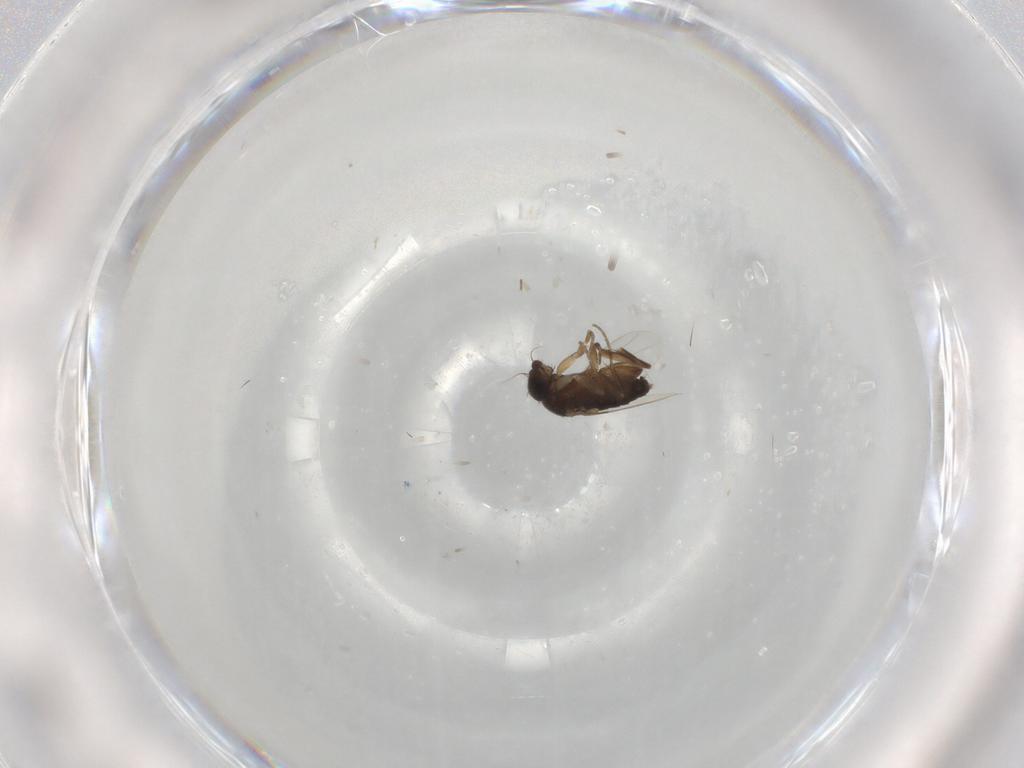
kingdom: Animalia
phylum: Arthropoda
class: Insecta
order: Diptera
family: Phoridae
